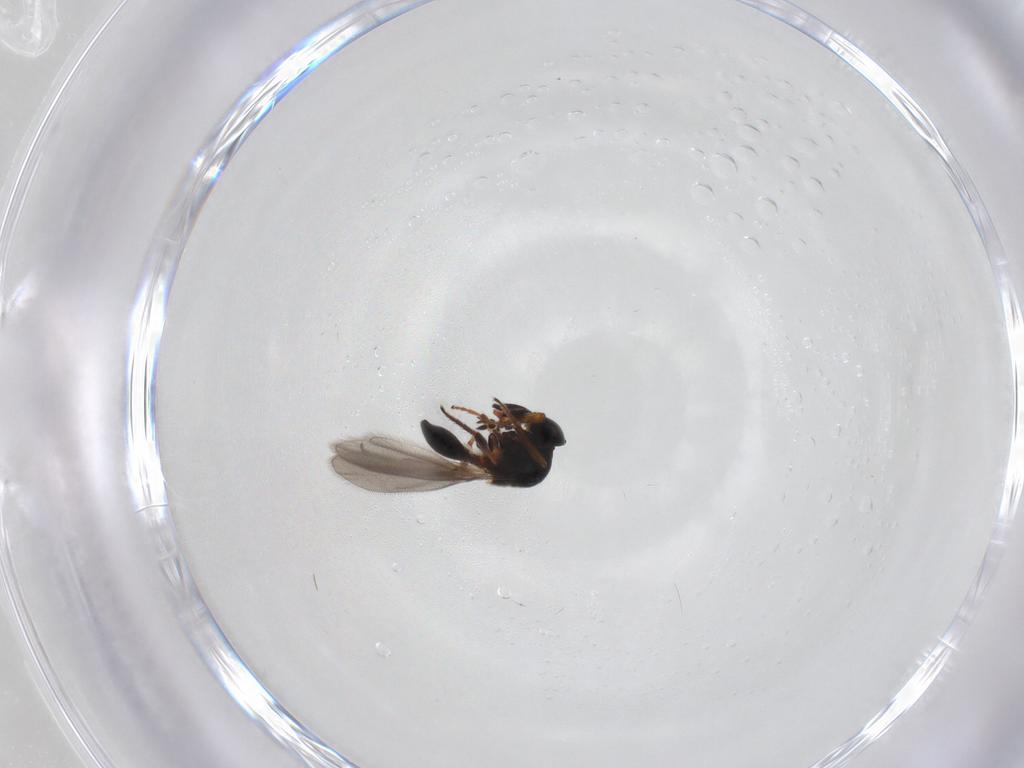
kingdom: Animalia
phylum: Arthropoda
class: Insecta
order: Hymenoptera
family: Platygastridae
